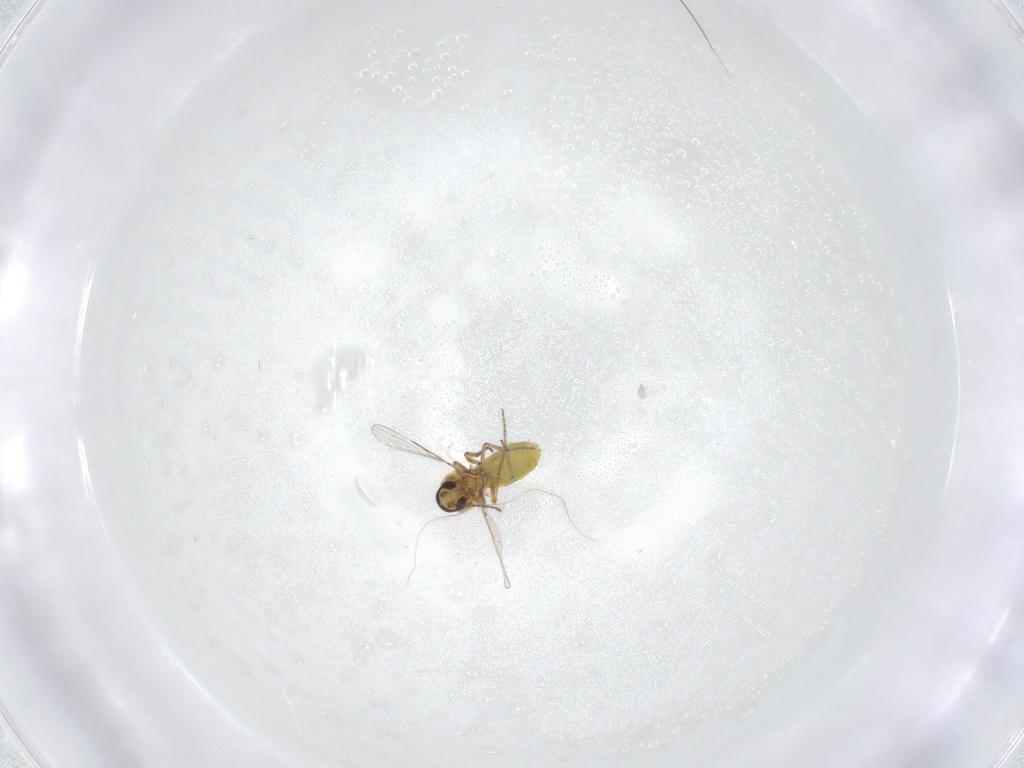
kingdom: Animalia
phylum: Arthropoda
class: Insecta
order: Diptera
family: Ceratopogonidae
